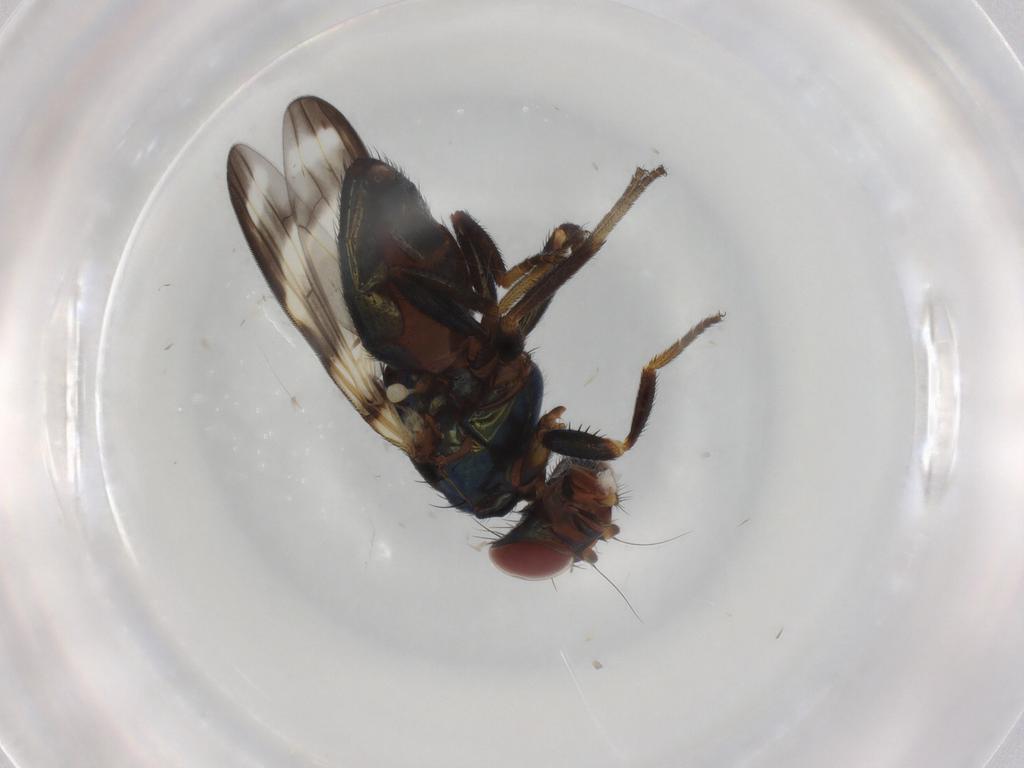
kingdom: Animalia
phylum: Arthropoda
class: Insecta
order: Diptera
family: Ulidiidae
